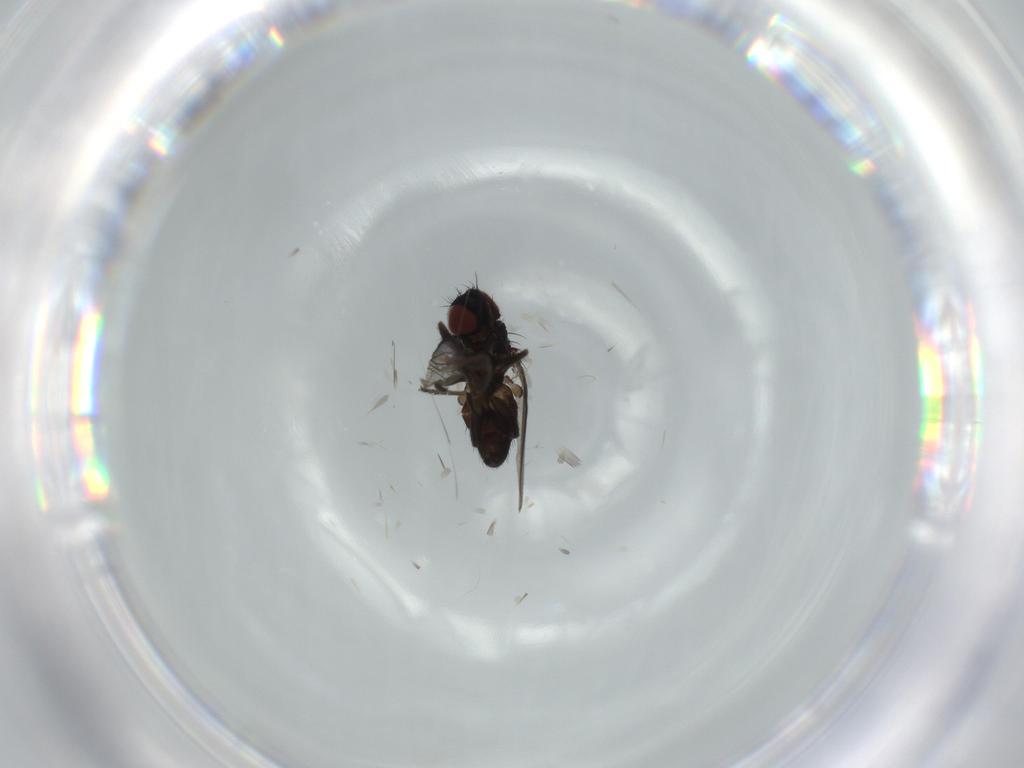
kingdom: Animalia
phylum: Arthropoda
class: Insecta
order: Diptera
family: Milichiidae
